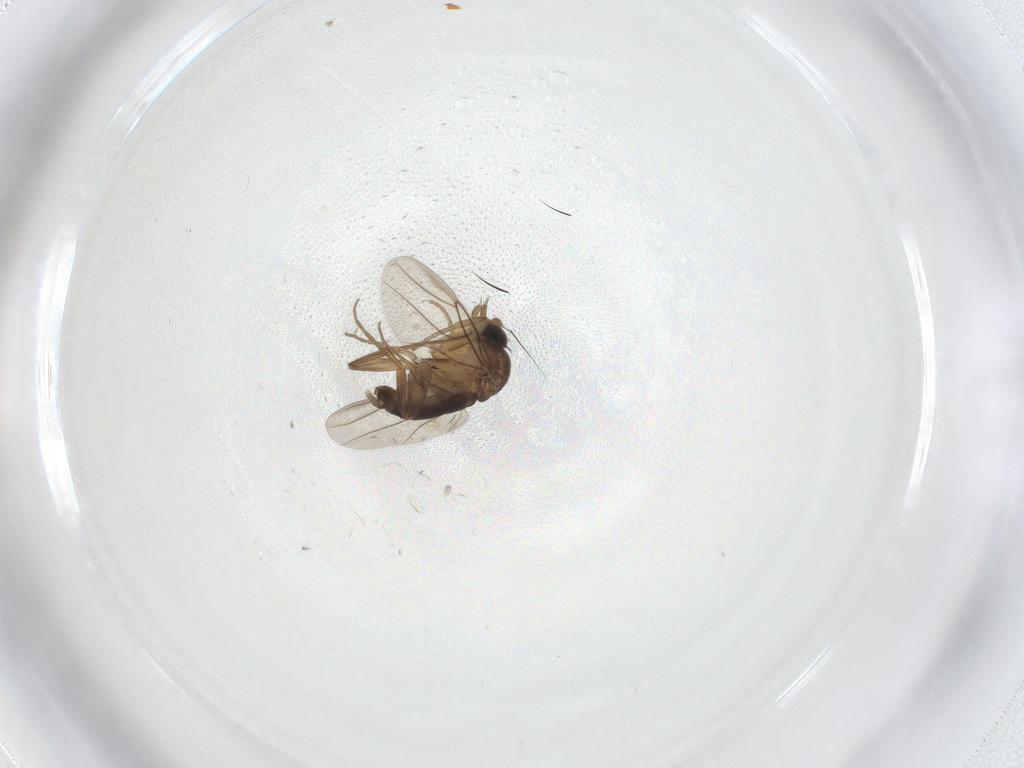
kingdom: Animalia
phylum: Arthropoda
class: Insecta
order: Diptera
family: Phoridae
